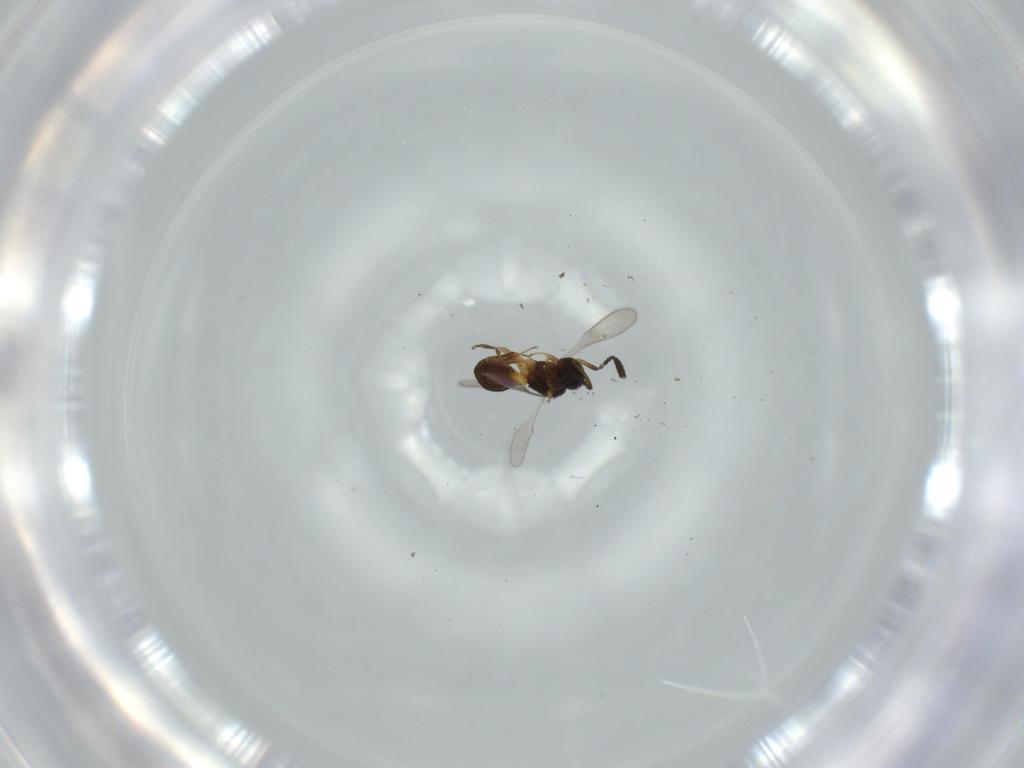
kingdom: Animalia
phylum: Arthropoda
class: Insecta
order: Hymenoptera
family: Scelionidae
